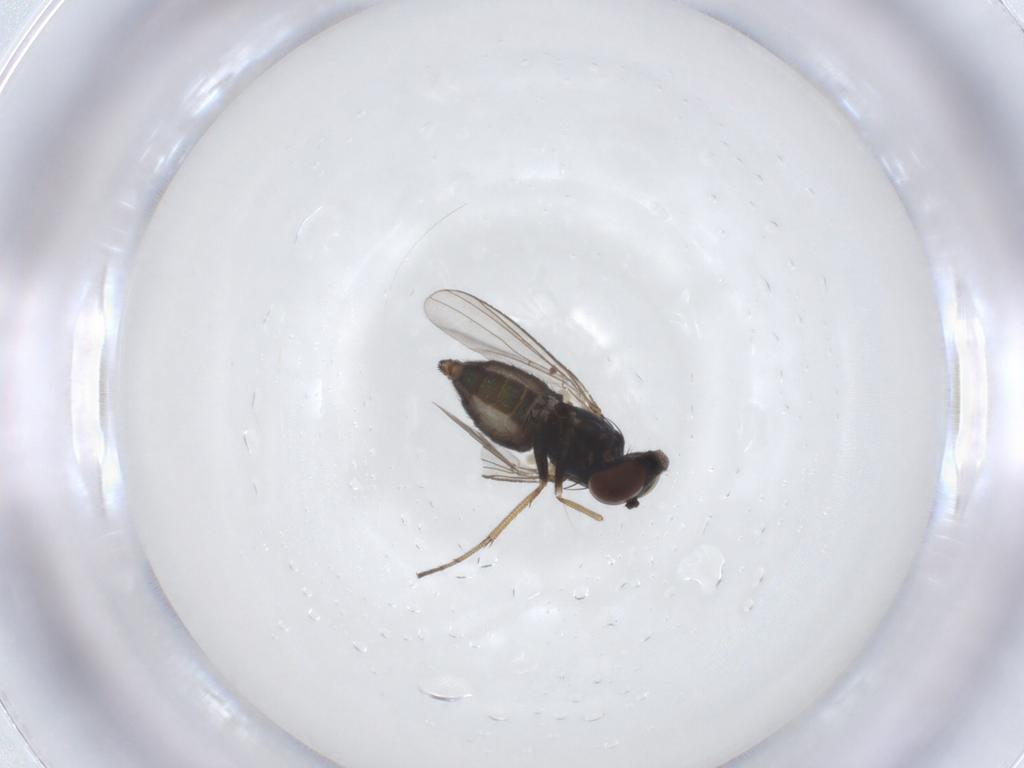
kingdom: Animalia
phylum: Arthropoda
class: Insecta
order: Diptera
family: Dolichopodidae
